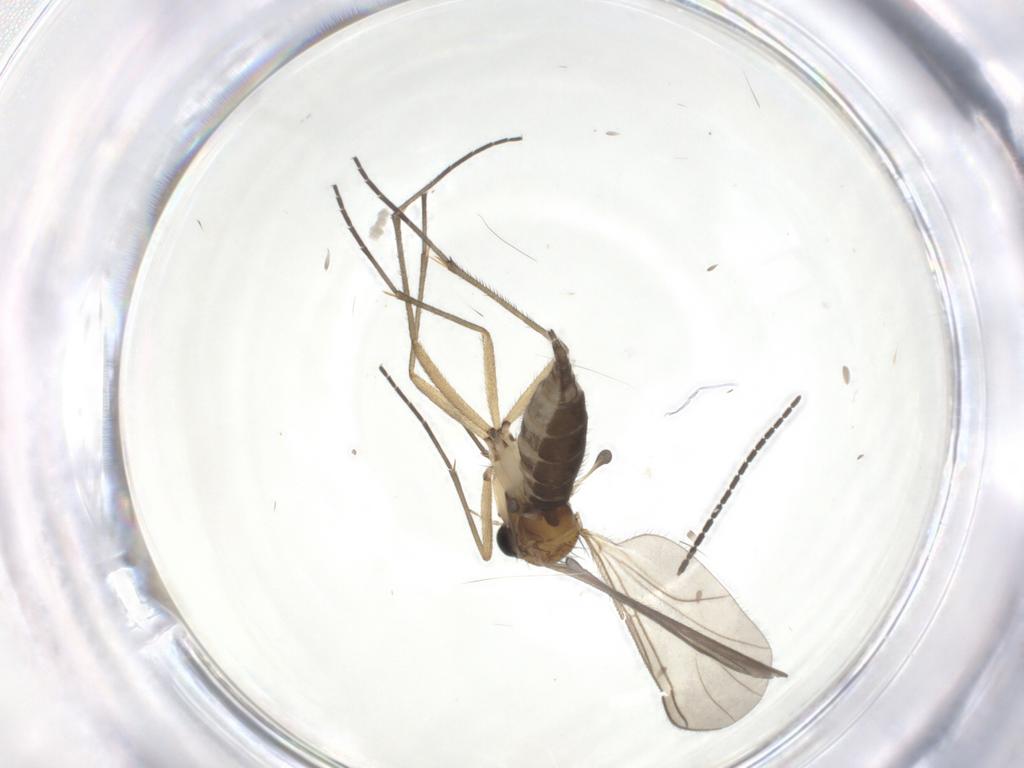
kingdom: Animalia
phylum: Arthropoda
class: Insecta
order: Diptera
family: Sciaridae
